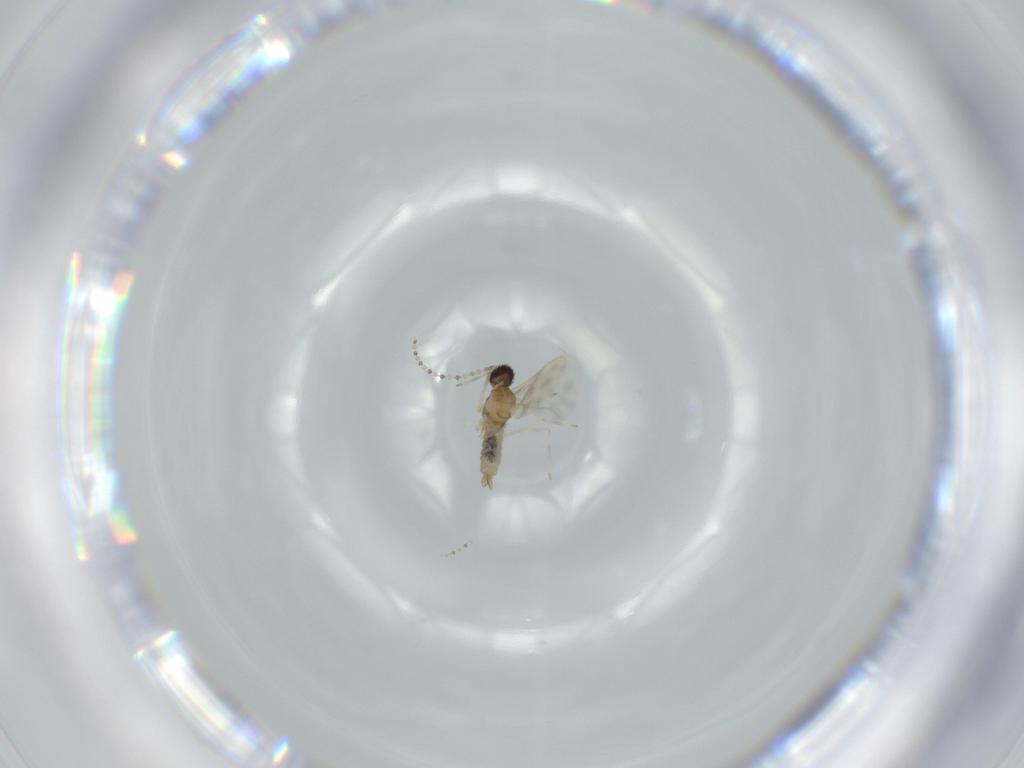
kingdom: Animalia
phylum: Arthropoda
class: Insecta
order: Diptera
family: Cecidomyiidae
